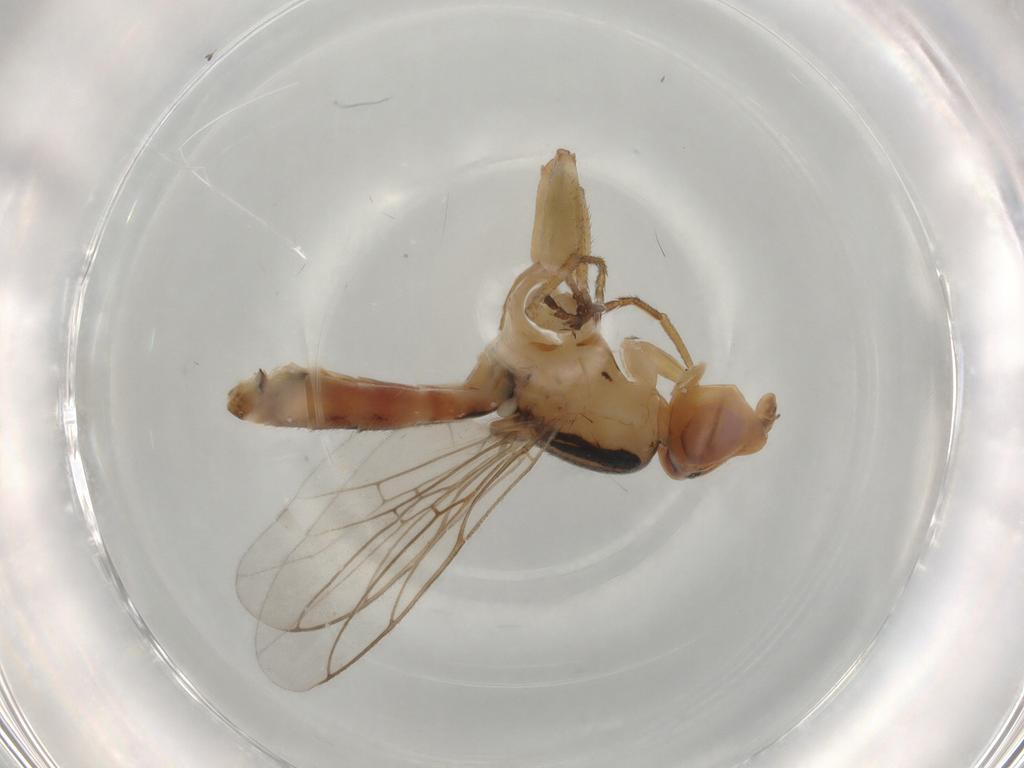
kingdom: Animalia
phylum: Arthropoda
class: Insecta
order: Diptera
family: Chloropidae
